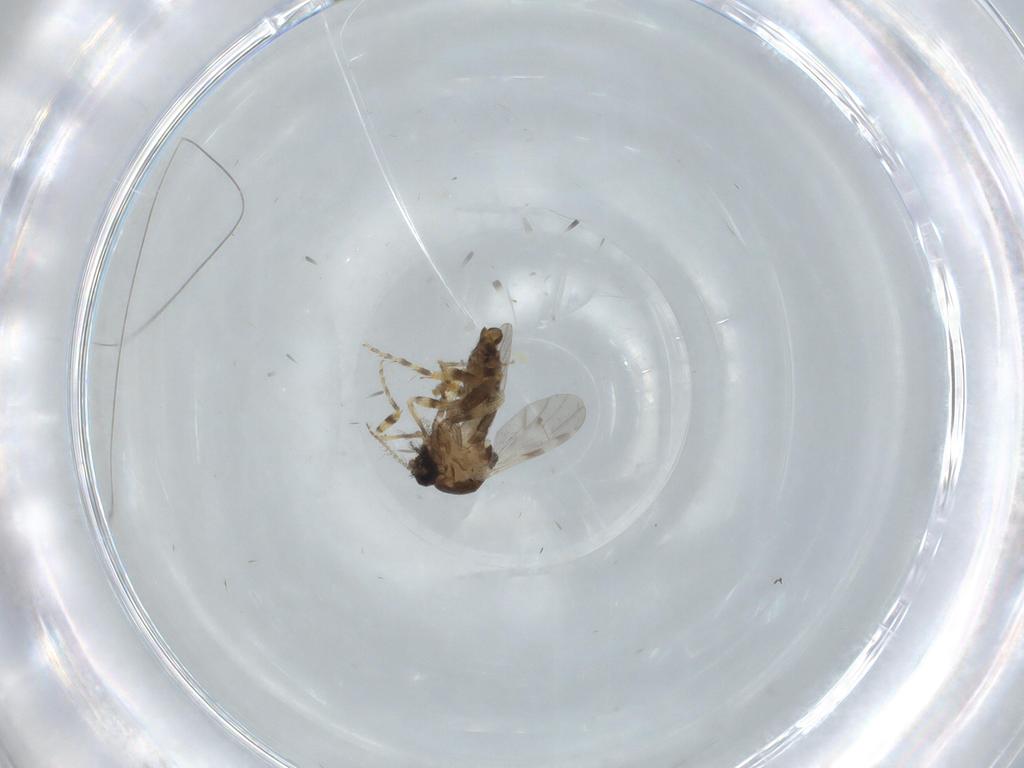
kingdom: Animalia
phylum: Arthropoda
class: Insecta
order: Diptera
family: Ceratopogonidae
